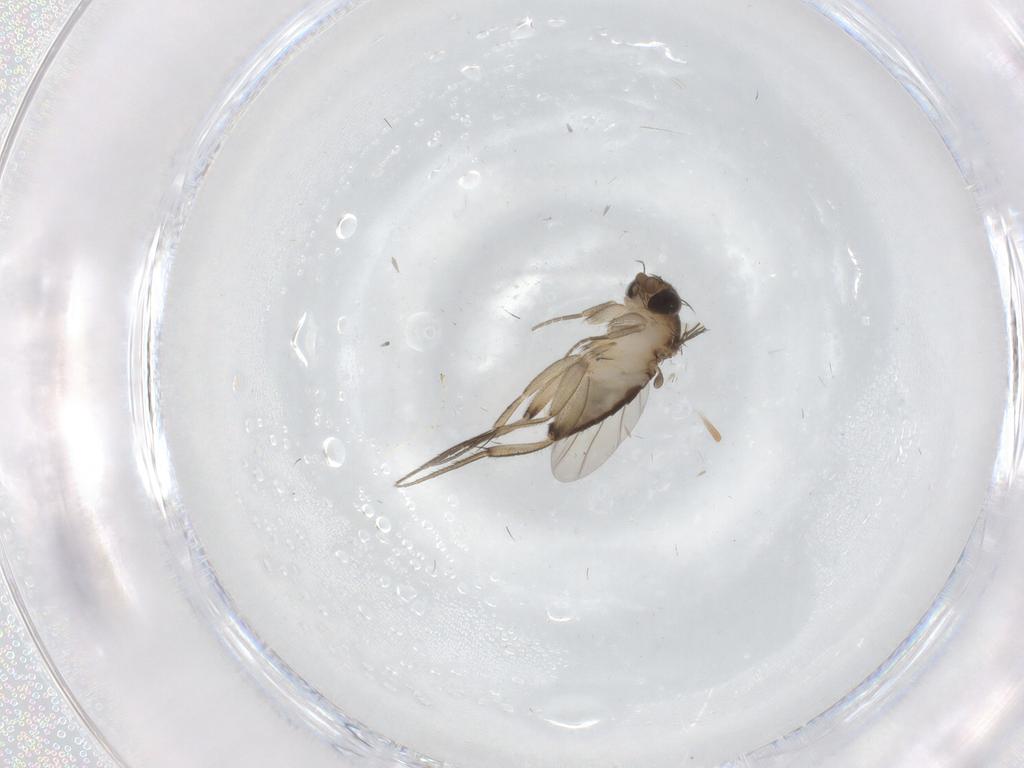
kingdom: Animalia
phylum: Arthropoda
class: Insecta
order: Diptera
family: Phoridae
